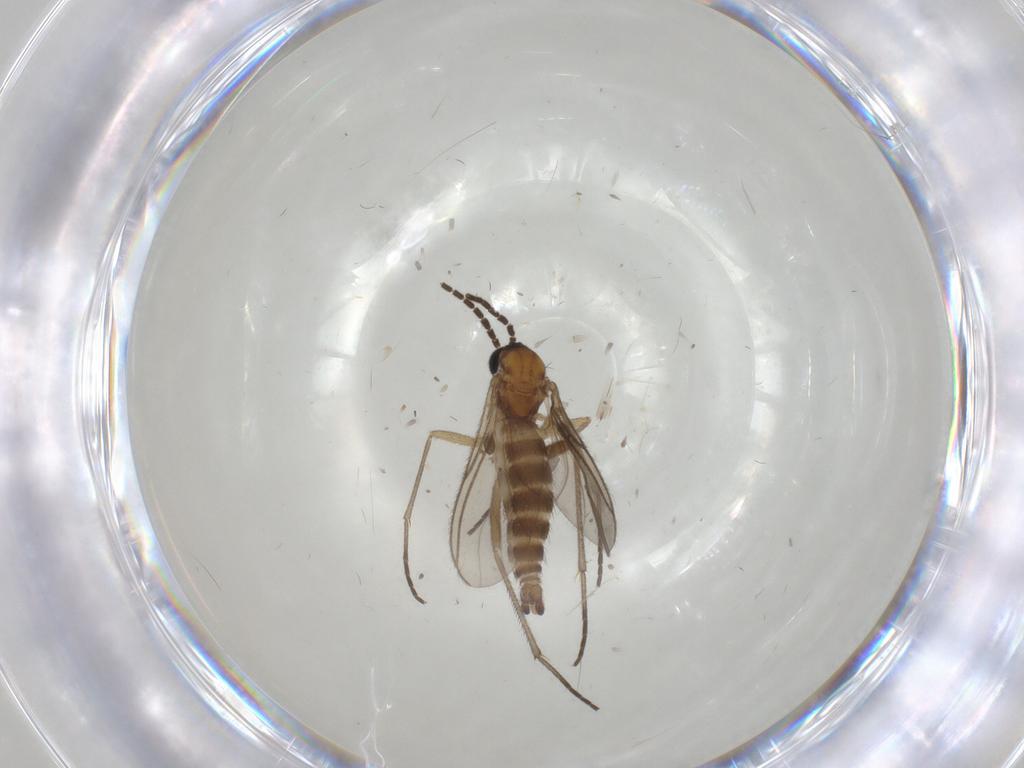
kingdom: Animalia
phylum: Arthropoda
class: Insecta
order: Diptera
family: Sciaridae
